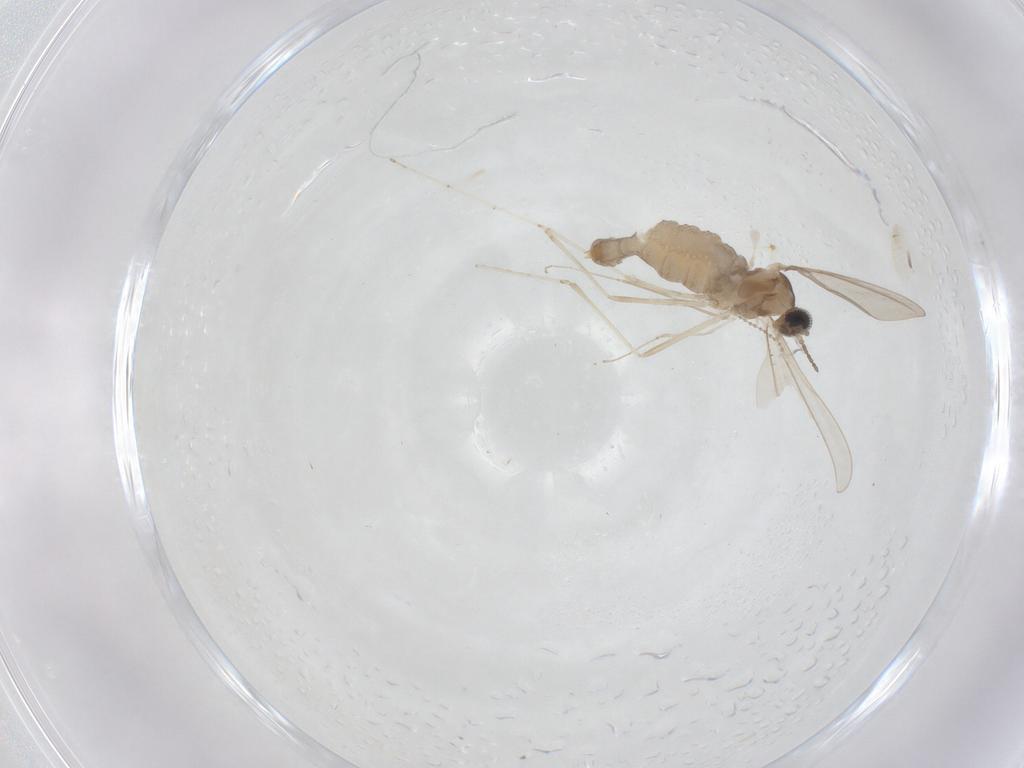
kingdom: Animalia
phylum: Arthropoda
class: Insecta
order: Diptera
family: Cecidomyiidae
